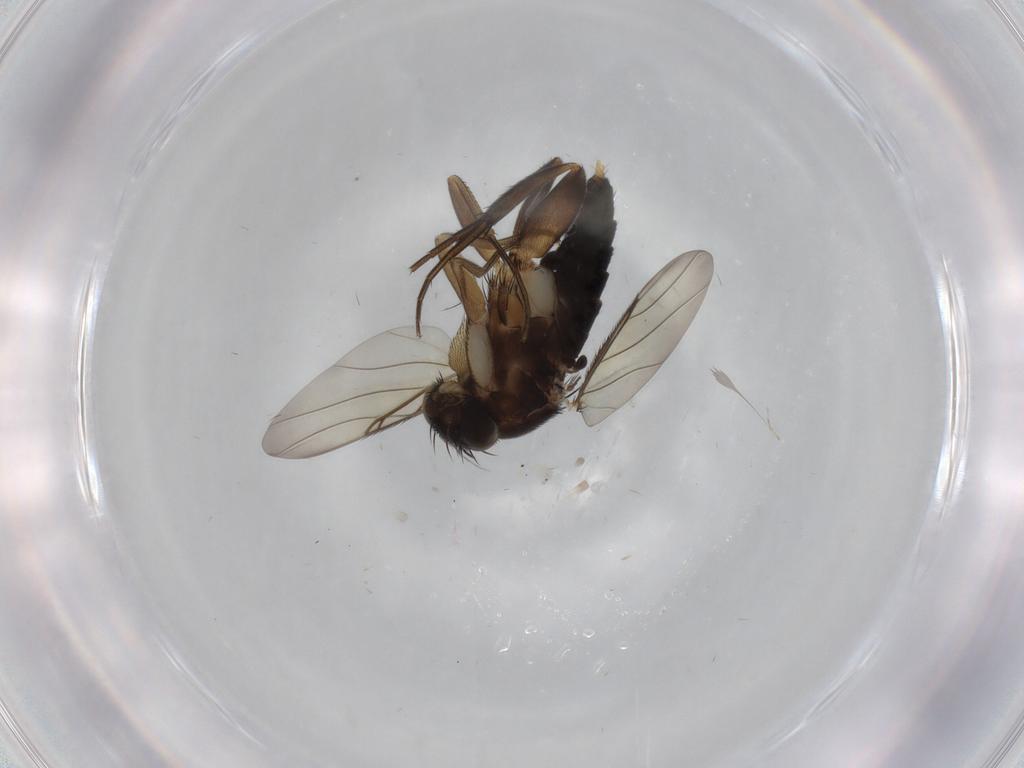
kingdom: Animalia
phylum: Arthropoda
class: Insecta
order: Diptera
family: Phoridae
